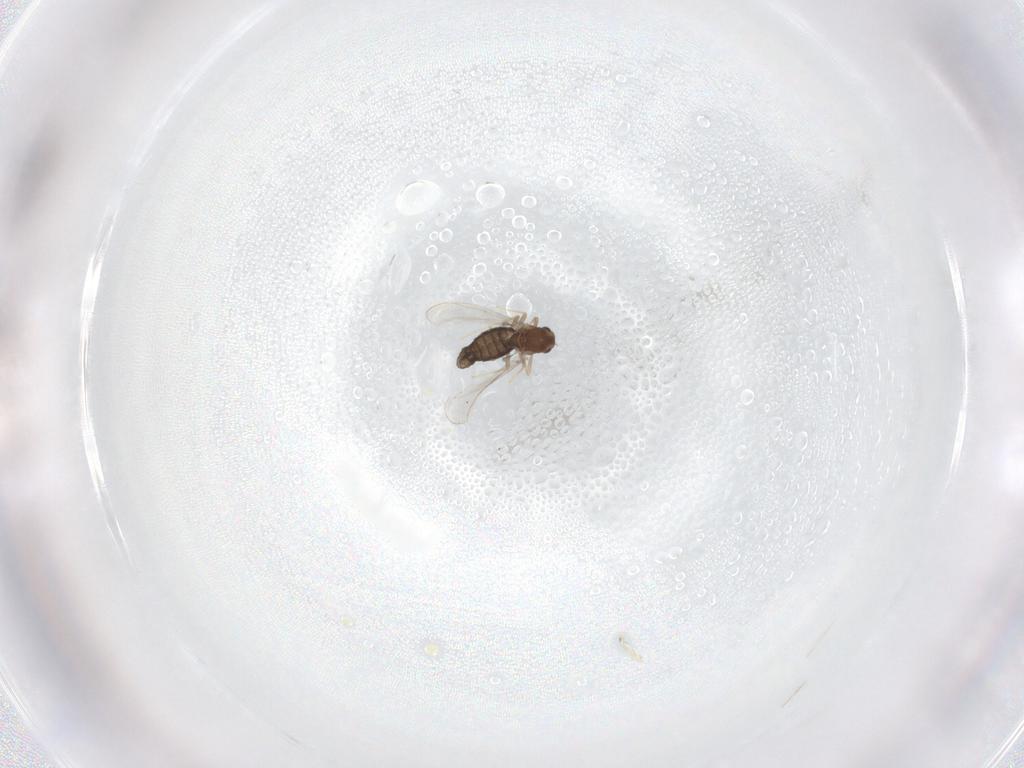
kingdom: Animalia
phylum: Arthropoda
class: Insecta
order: Diptera
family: Chironomidae
